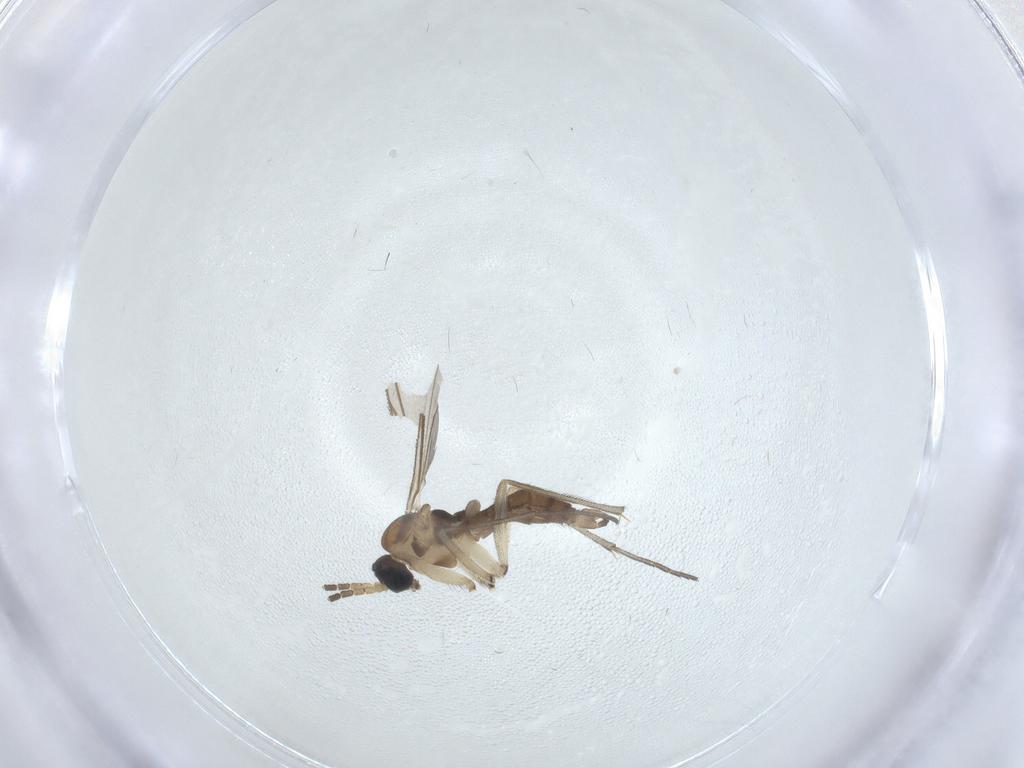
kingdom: Animalia
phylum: Arthropoda
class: Insecta
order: Diptera
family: Sciaridae
